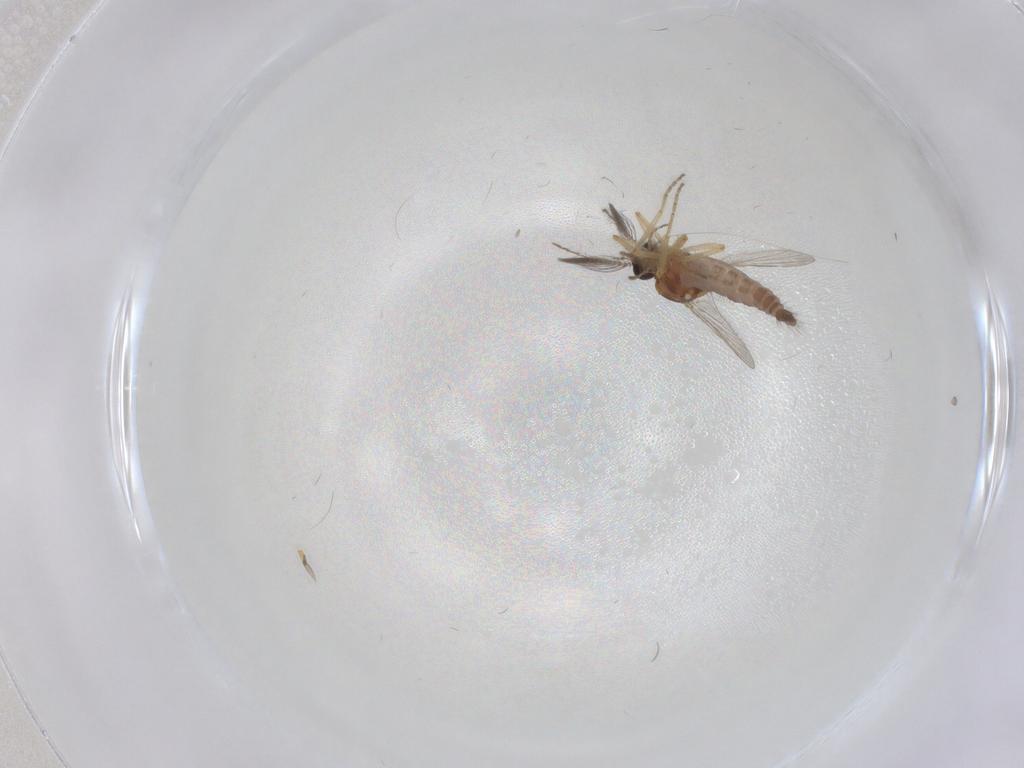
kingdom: Animalia
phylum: Arthropoda
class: Insecta
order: Diptera
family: Ceratopogonidae
